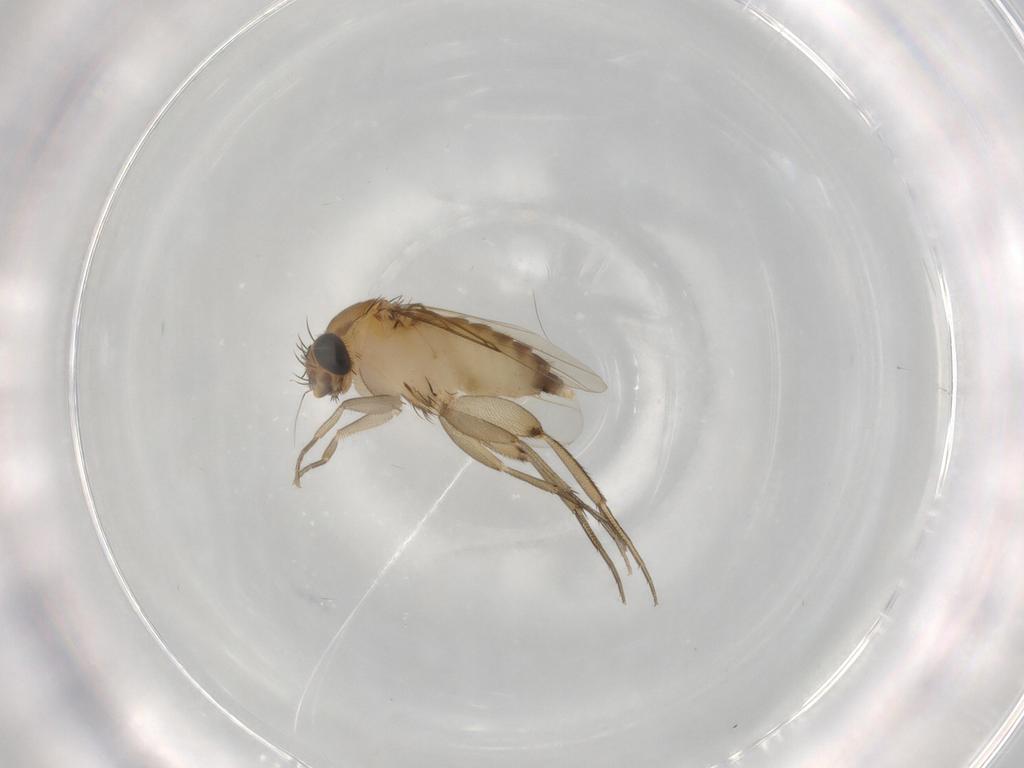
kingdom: Animalia
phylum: Arthropoda
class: Insecta
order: Diptera
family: Phoridae
